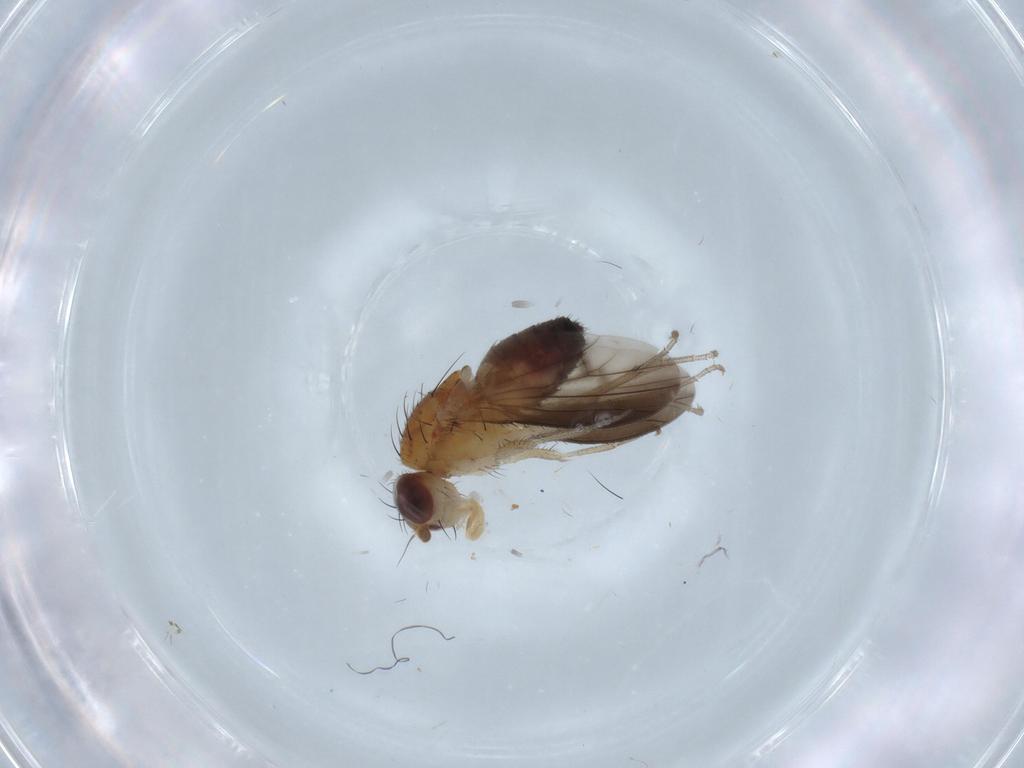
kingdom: Animalia
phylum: Arthropoda
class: Insecta
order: Diptera
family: Heleomyzidae
